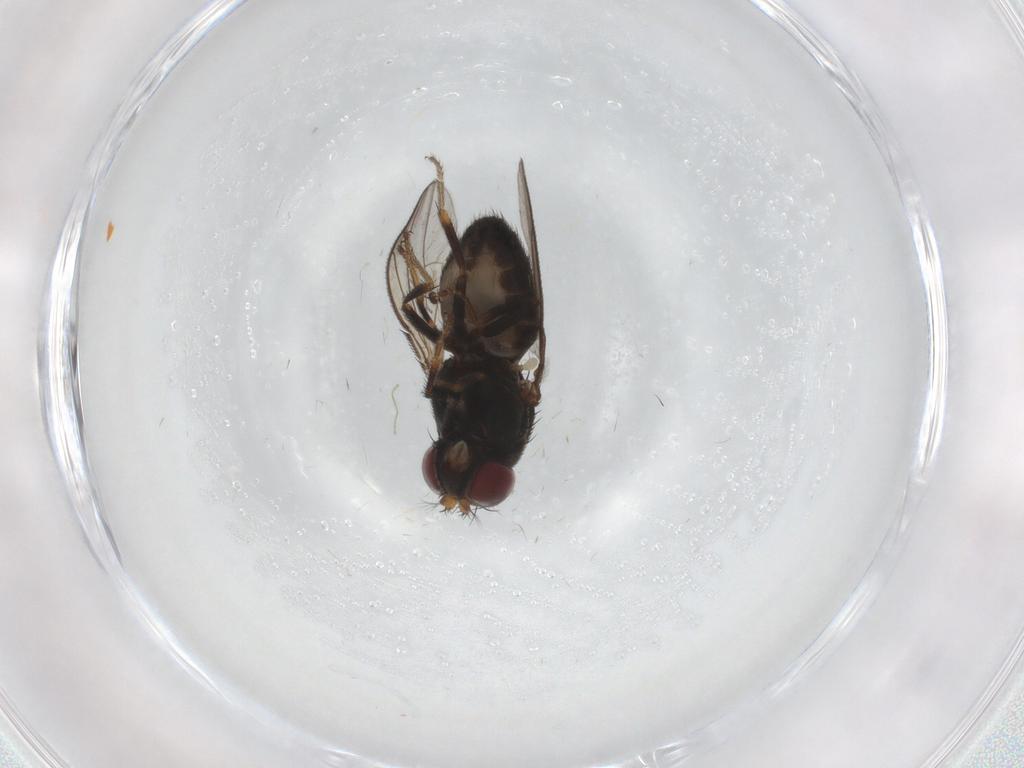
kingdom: Animalia
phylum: Arthropoda
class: Insecta
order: Diptera
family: Ephydridae
